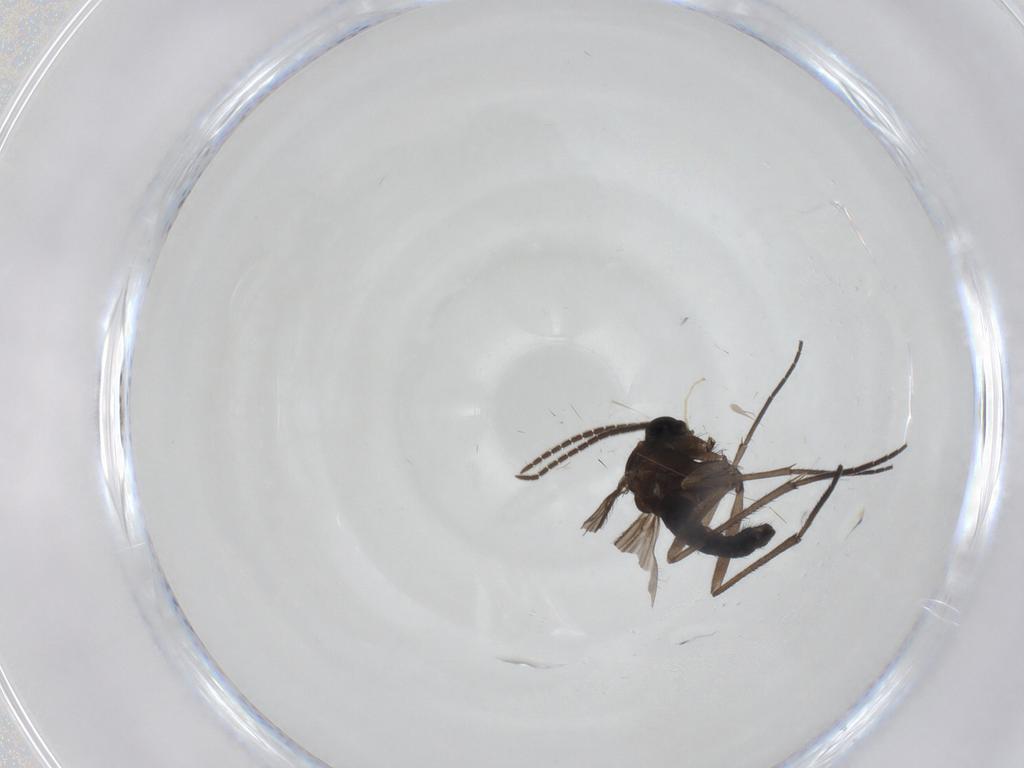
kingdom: Animalia
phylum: Arthropoda
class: Insecta
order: Diptera
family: Sciaridae
